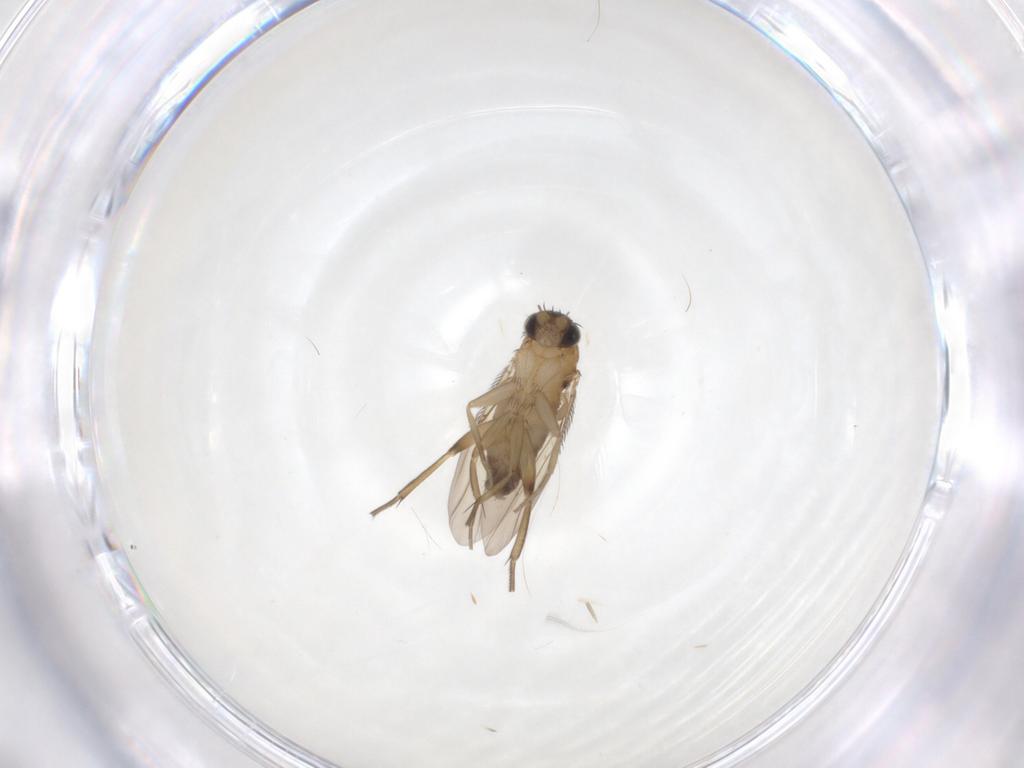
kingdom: Animalia
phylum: Arthropoda
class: Insecta
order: Diptera
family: Phoridae
